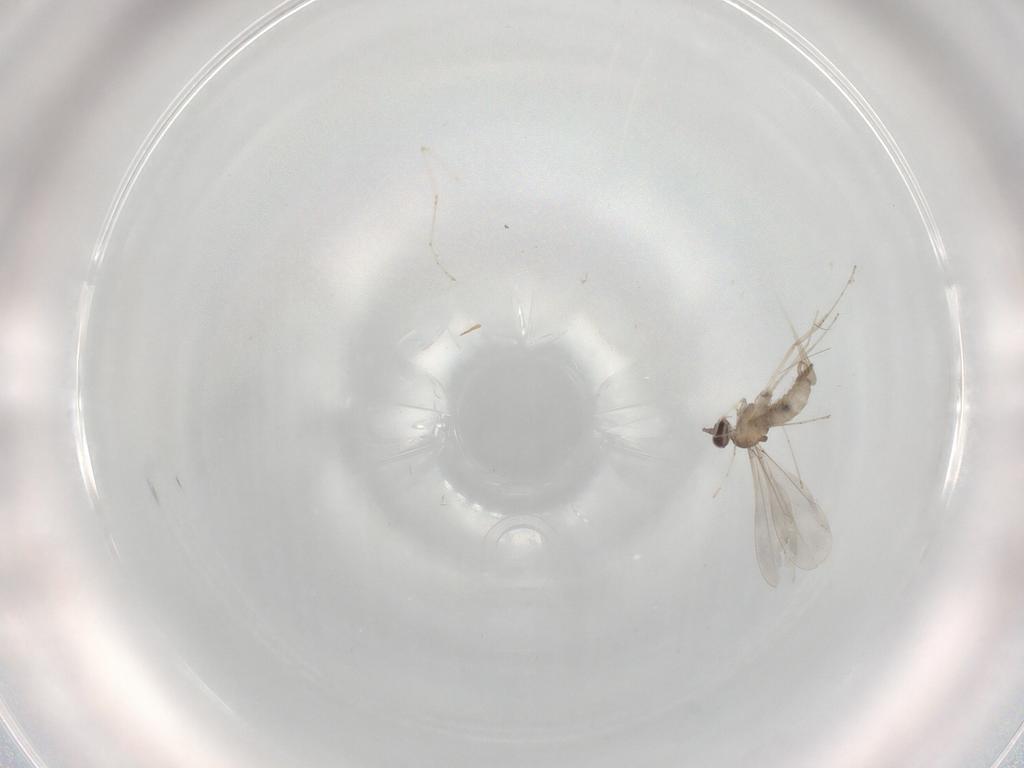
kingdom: Animalia
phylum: Arthropoda
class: Insecta
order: Diptera
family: Cecidomyiidae
